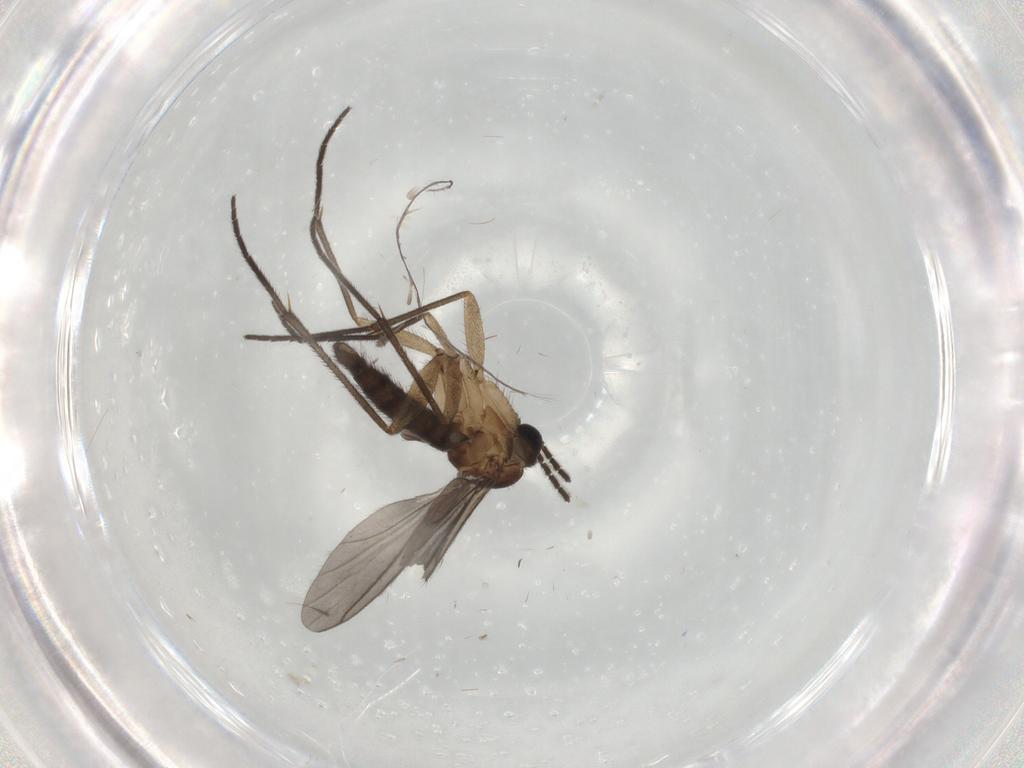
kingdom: Animalia
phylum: Arthropoda
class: Insecta
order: Diptera
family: Sciaridae
